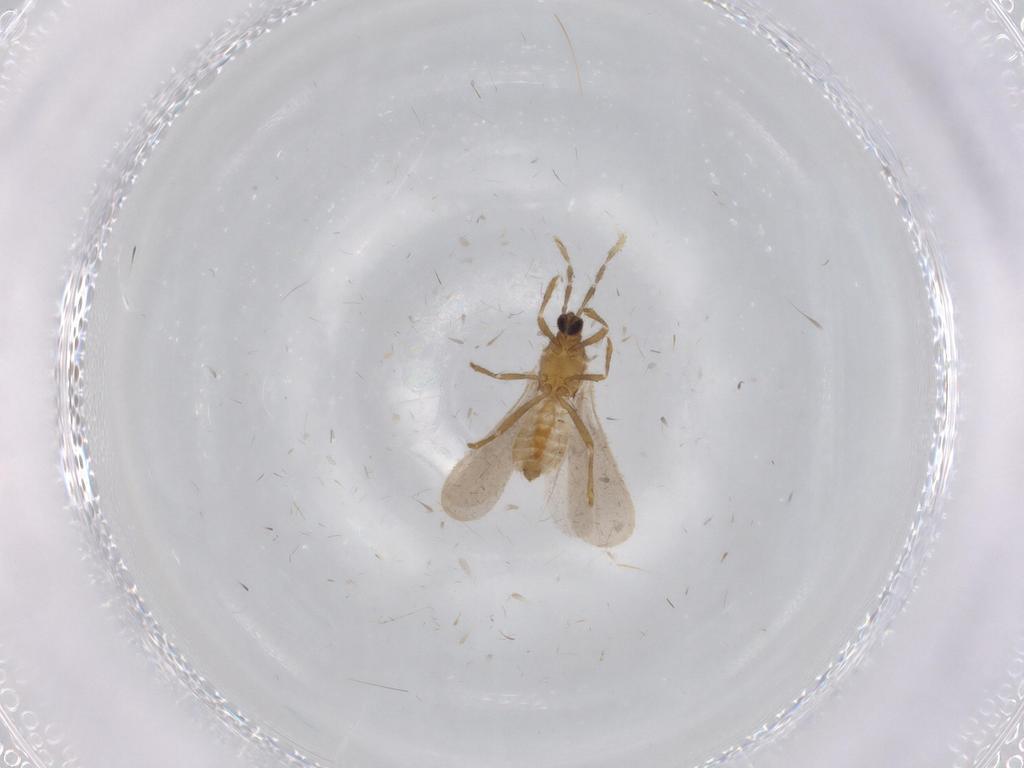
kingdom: Animalia
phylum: Arthropoda
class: Insecta
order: Hemiptera
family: Enicocephalidae
